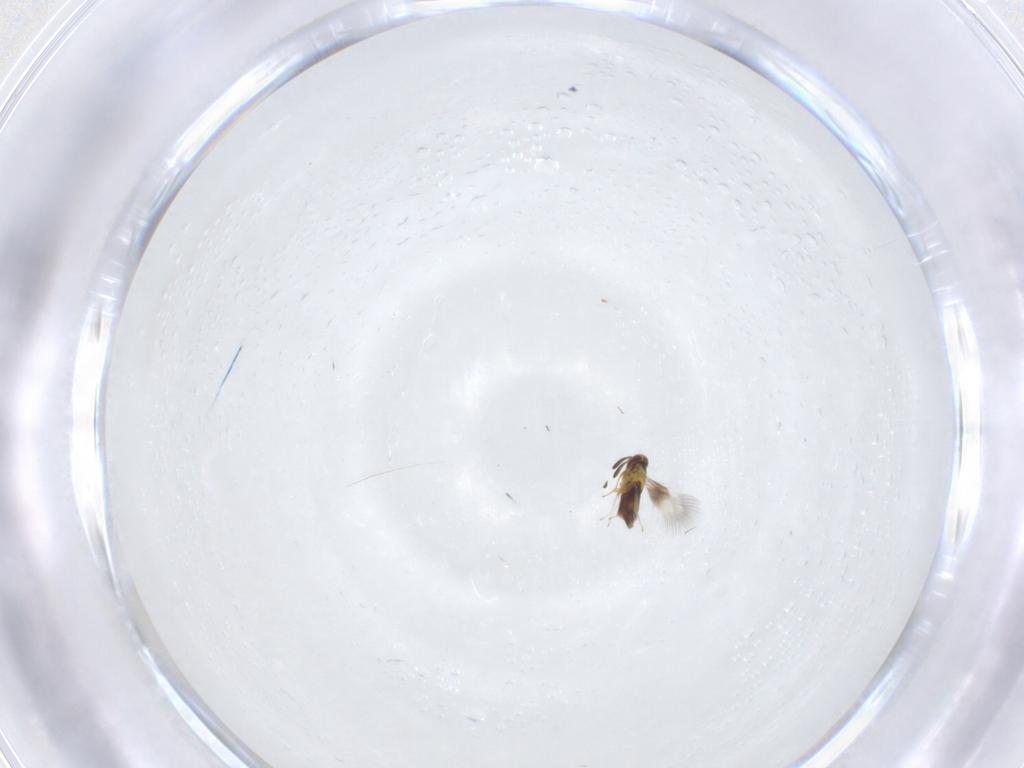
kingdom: Animalia
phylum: Arthropoda
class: Insecta
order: Hymenoptera
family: Signiphoridae
